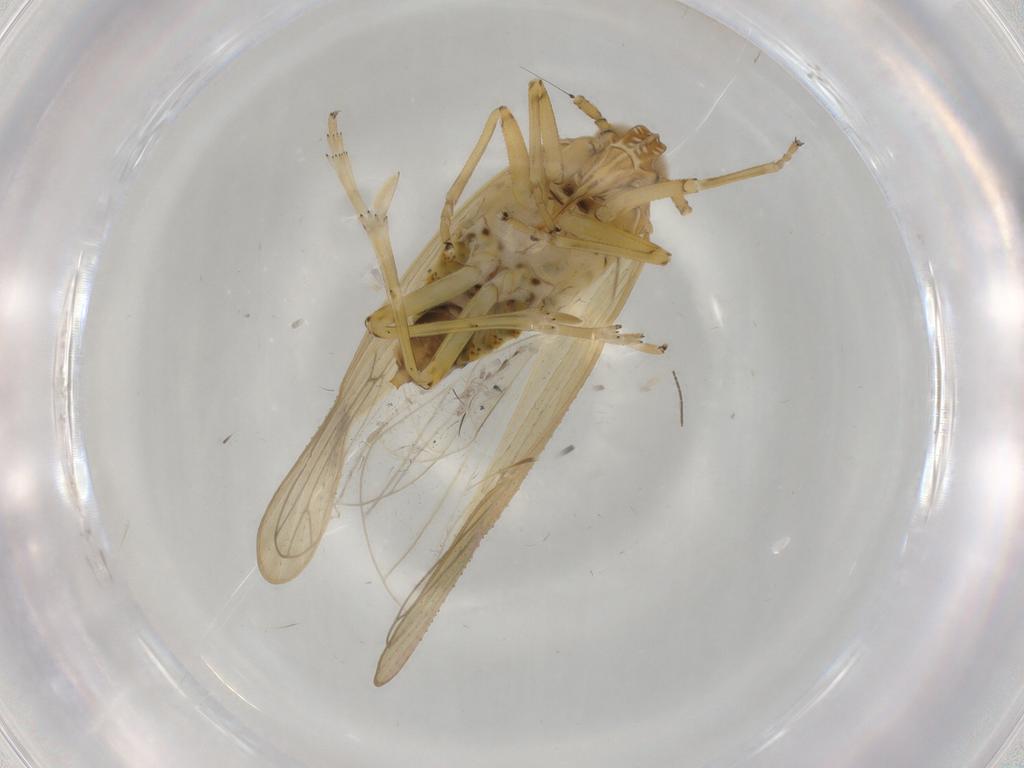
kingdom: Animalia
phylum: Arthropoda
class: Insecta
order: Hemiptera
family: Delphacidae
